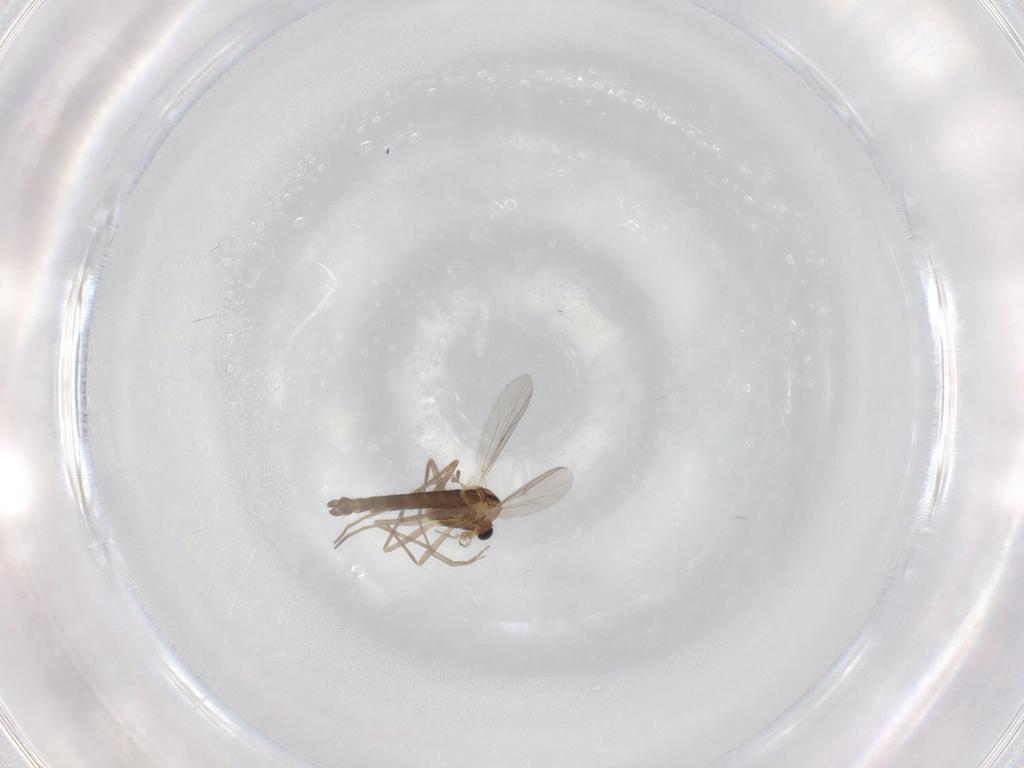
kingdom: Animalia
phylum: Arthropoda
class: Insecta
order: Diptera
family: Chironomidae
